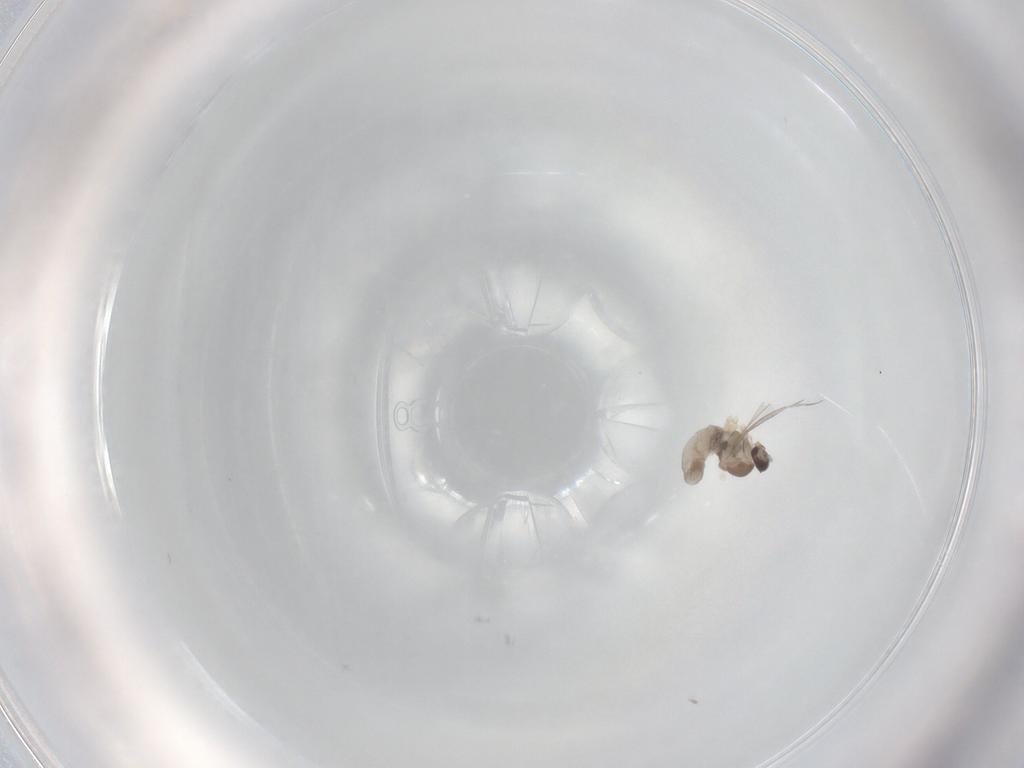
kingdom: Animalia
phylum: Arthropoda
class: Insecta
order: Diptera
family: Cecidomyiidae
